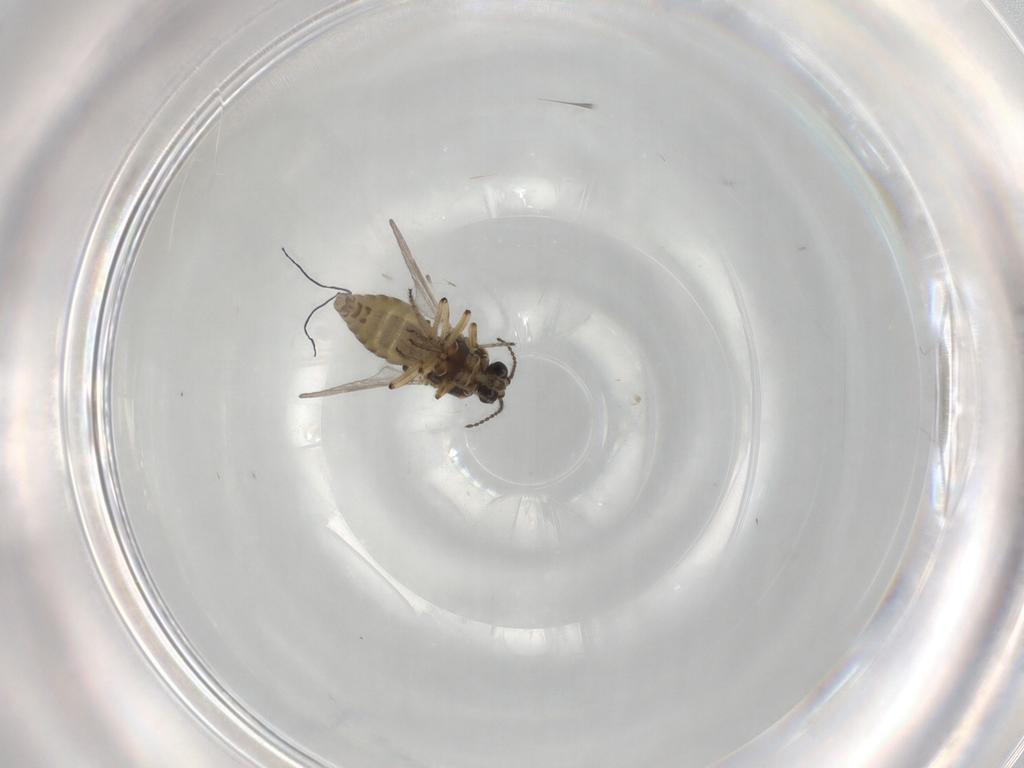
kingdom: Animalia
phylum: Arthropoda
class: Insecta
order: Diptera
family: Ceratopogonidae
